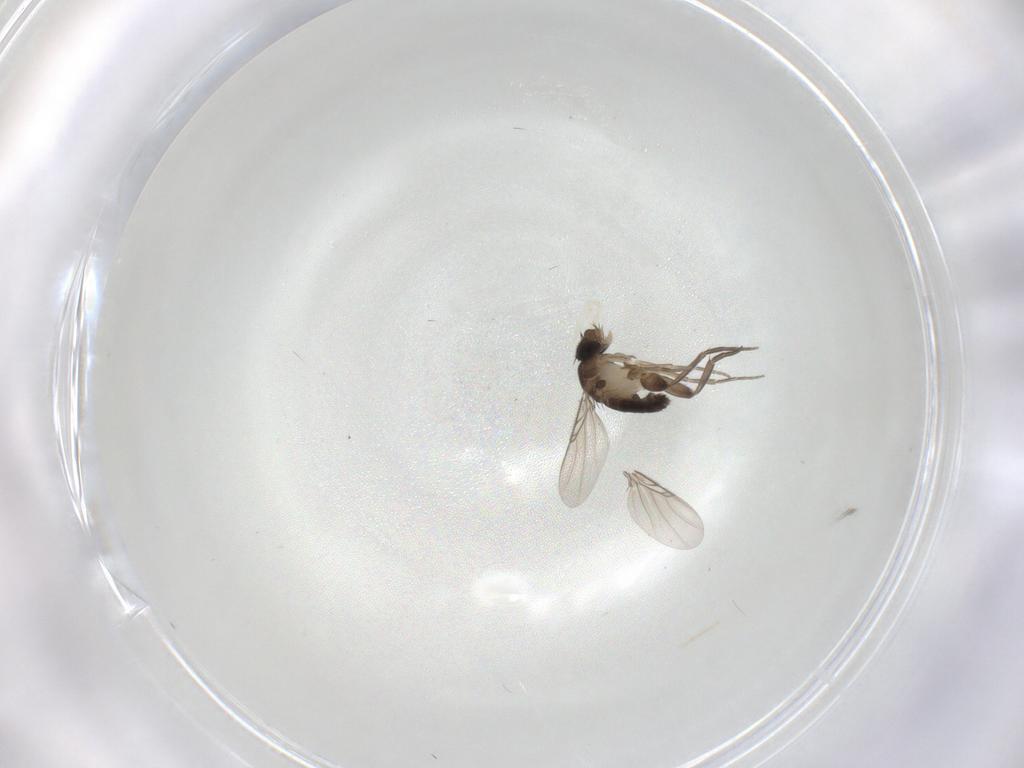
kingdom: Animalia
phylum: Arthropoda
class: Insecta
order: Diptera
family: Phoridae
